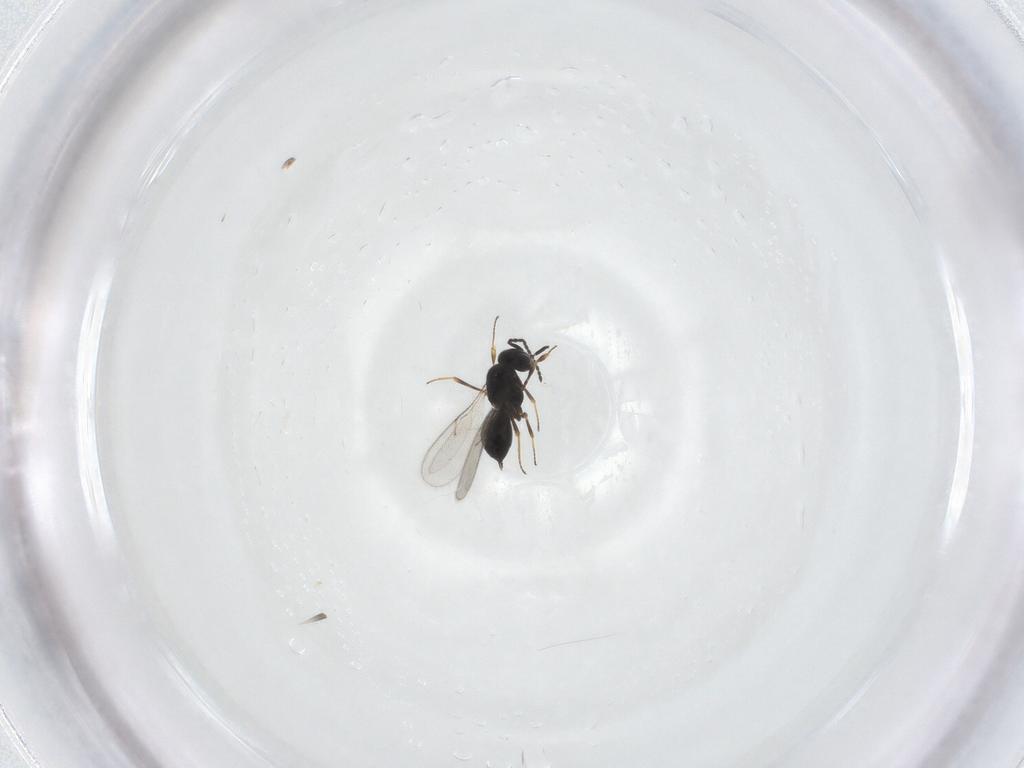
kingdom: Animalia
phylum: Arthropoda
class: Insecta
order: Hymenoptera
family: Scelionidae
